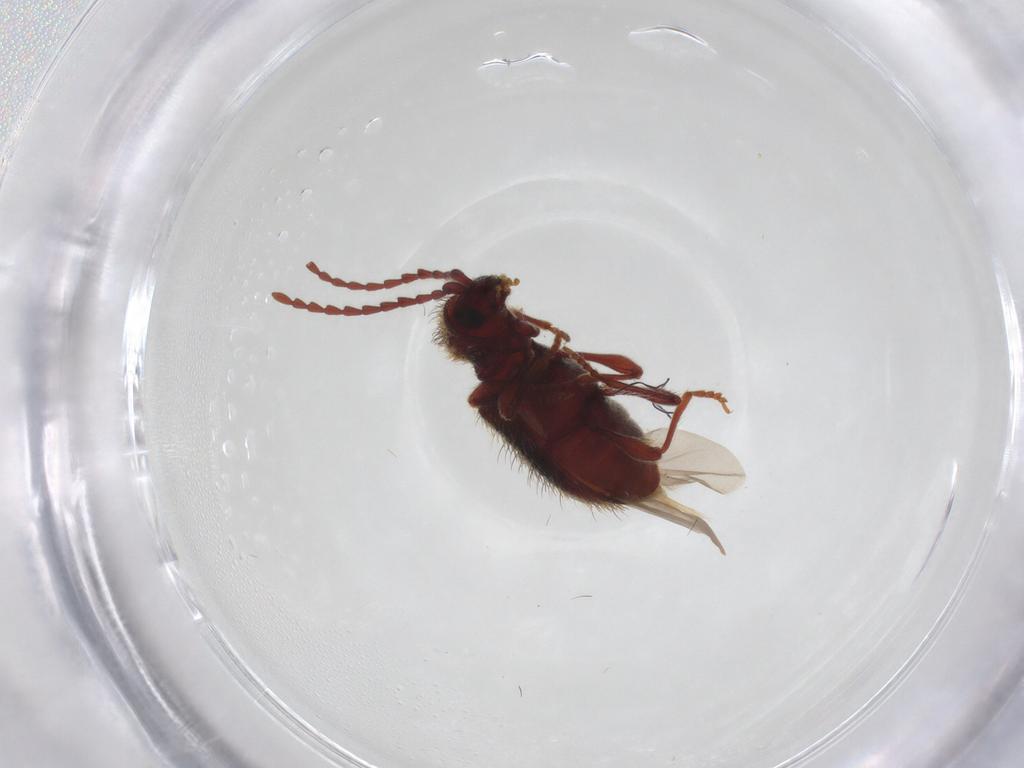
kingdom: Animalia
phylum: Arthropoda
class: Insecta
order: Coleoptera
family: Ptinidae
